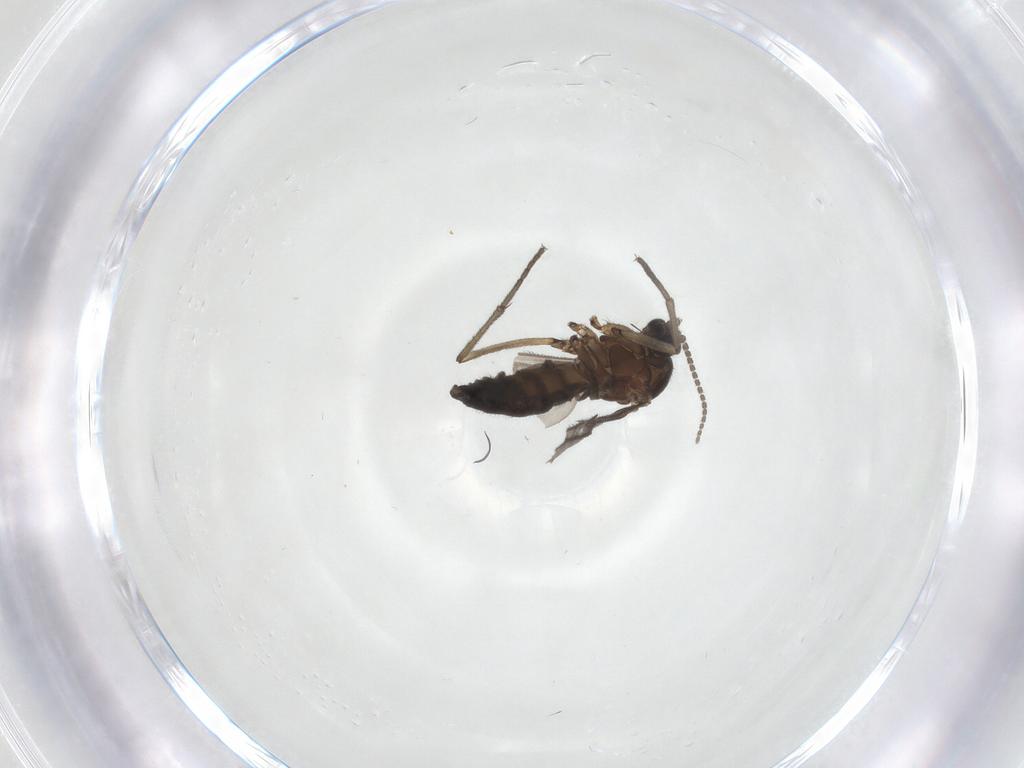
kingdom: Animalia
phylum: Arthropoda
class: Insecta
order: Diptera
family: Sciaridae
